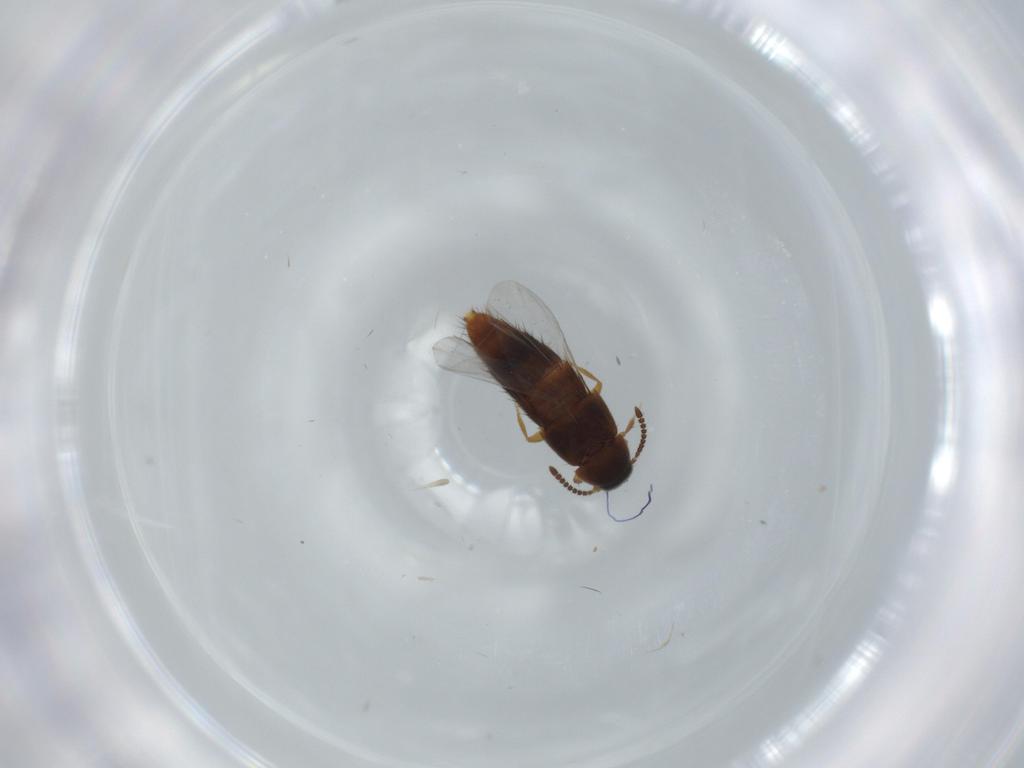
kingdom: Animalia
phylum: Arthropoda
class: Insecta
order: Coleoptera
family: Staphylinidae
